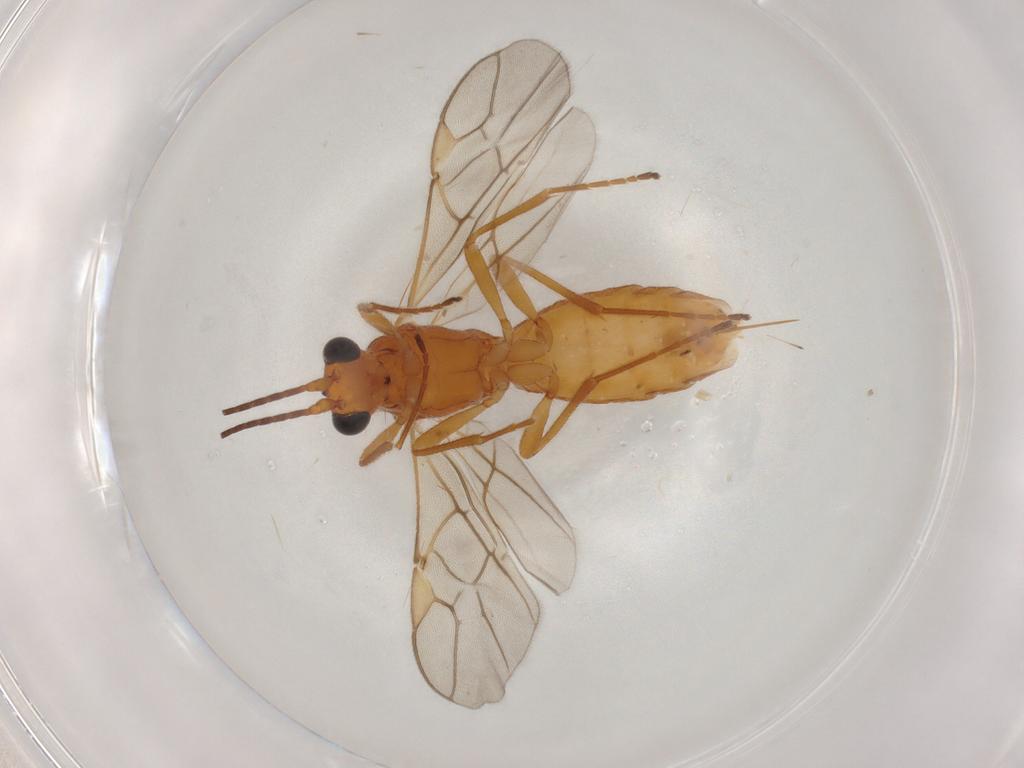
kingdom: Animalia
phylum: Arthropoda
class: Insecta
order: Hymenoptera
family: Braconidae
